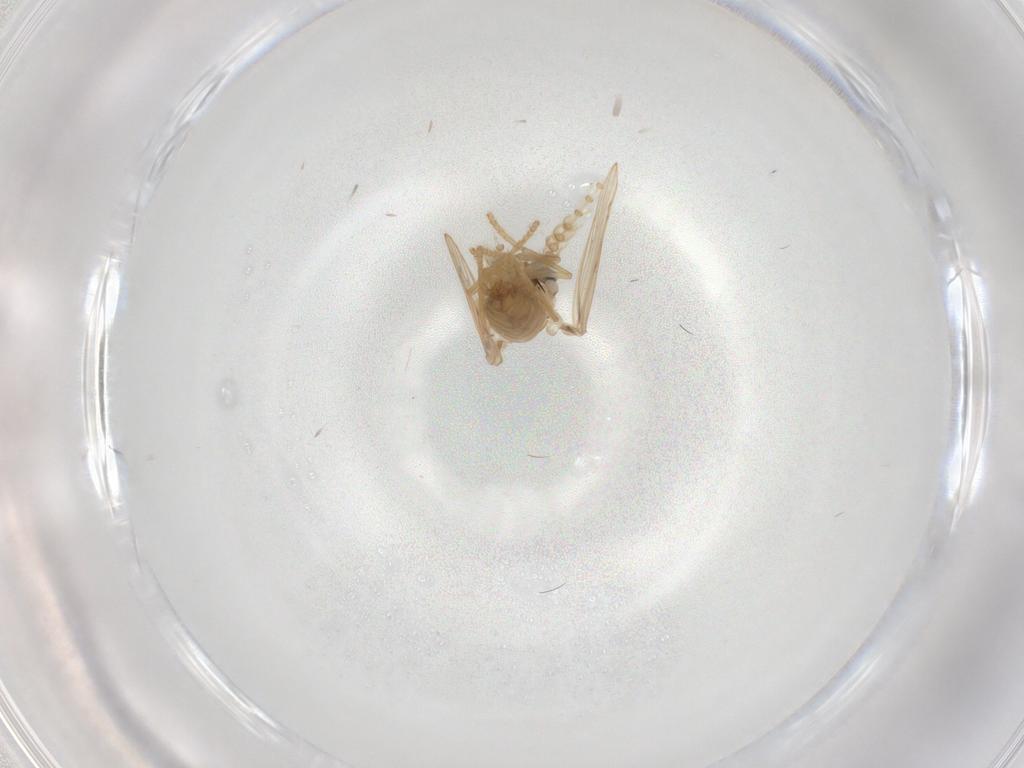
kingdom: Animalia
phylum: Arthropoda
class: Insecta
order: Diptera
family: Psychodidae
